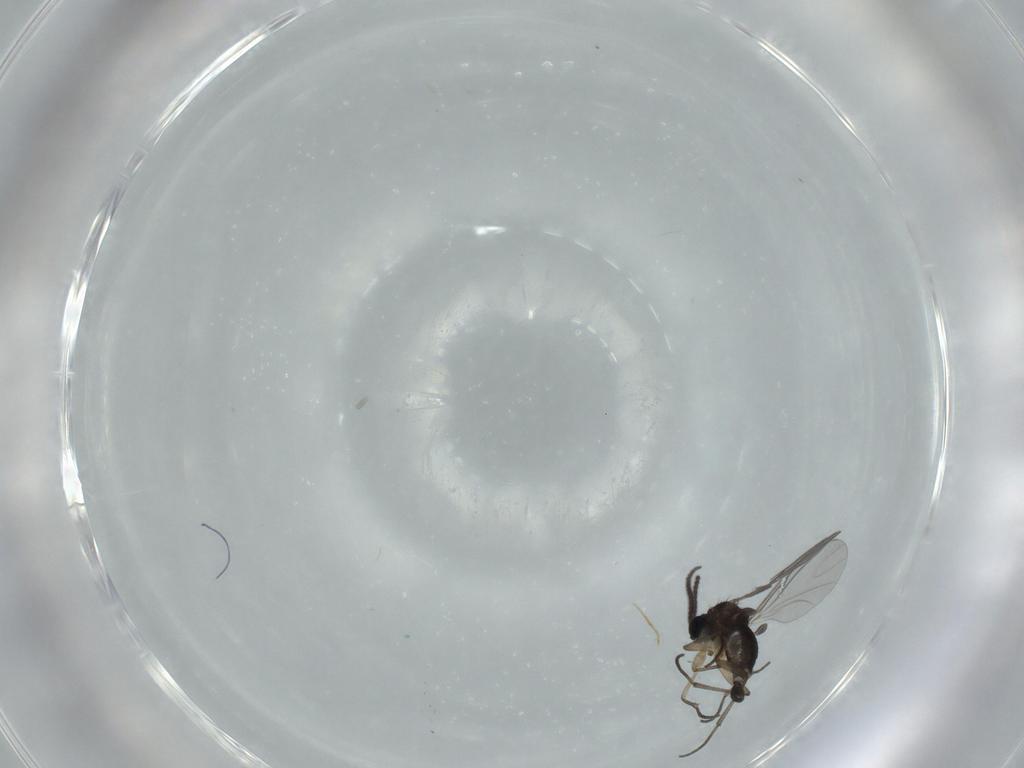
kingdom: Animalia
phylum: Arthropoda
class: Insecta
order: Diptera
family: Sciaridae
